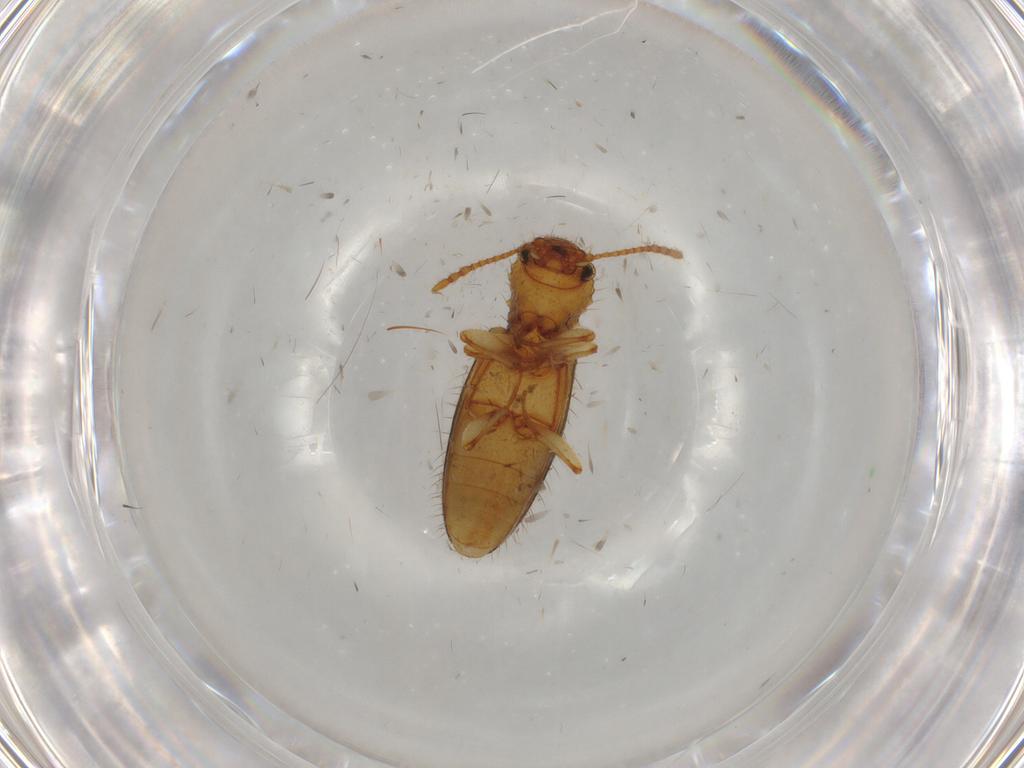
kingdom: Animalia
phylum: Arthropoda
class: Insecta
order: Coleoptera
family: Silvanidae
